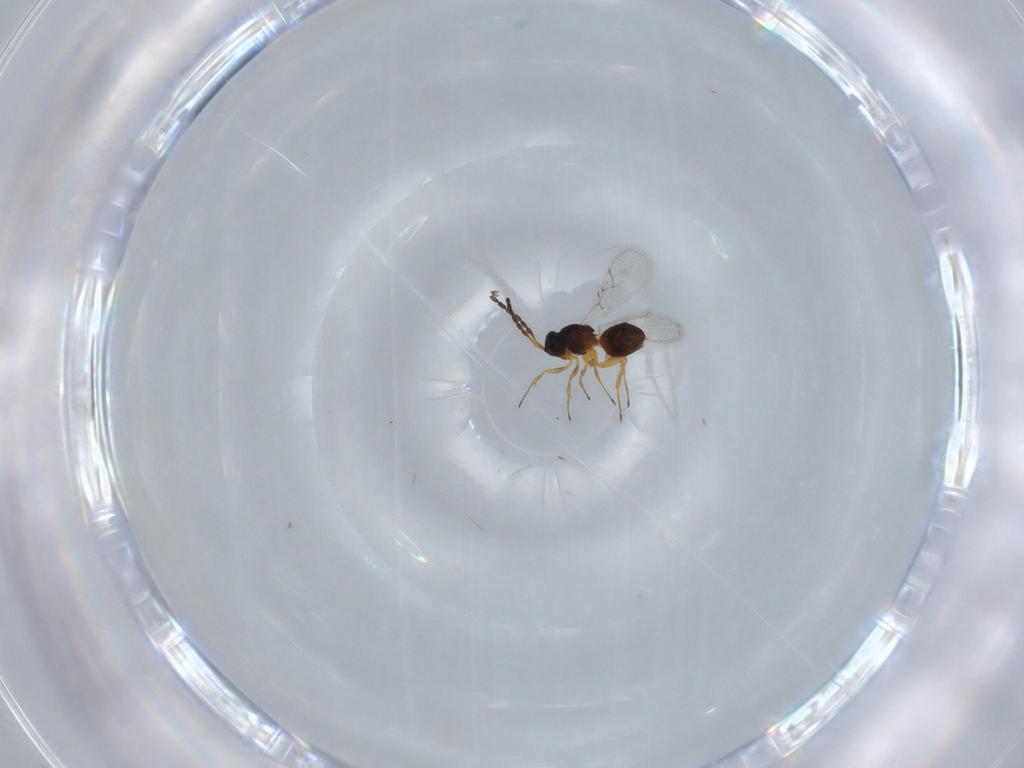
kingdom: Animalia
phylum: Arthropoda
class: Insecta
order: Hymenoptera
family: Figitidae
